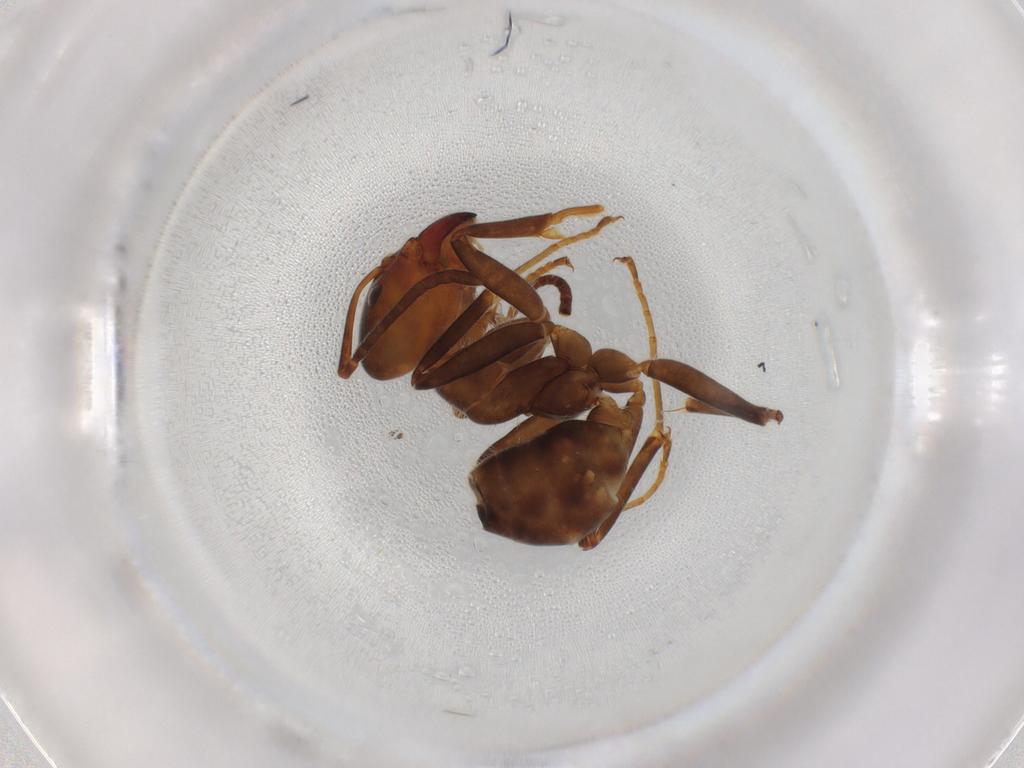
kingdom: Animalia
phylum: Arthropoda
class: Insecta
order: Hymenoptera
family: Formicidae
